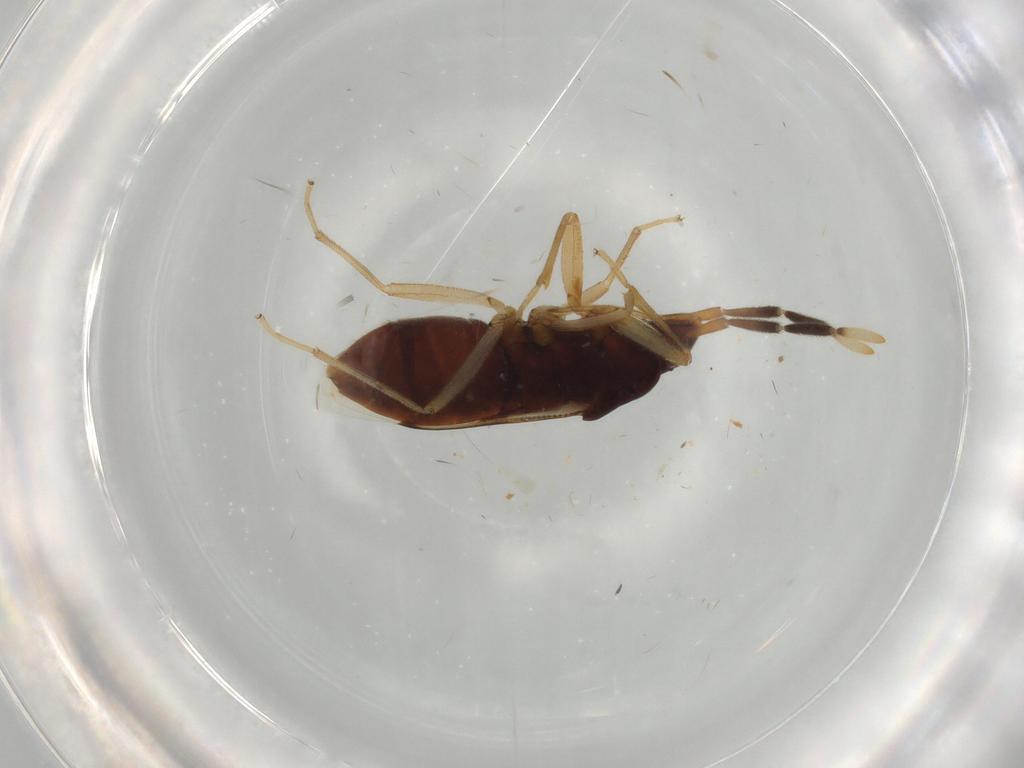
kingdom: Animalia
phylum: Arthropoda
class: Insecta
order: Hemiptera
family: Rhyparochromidae
